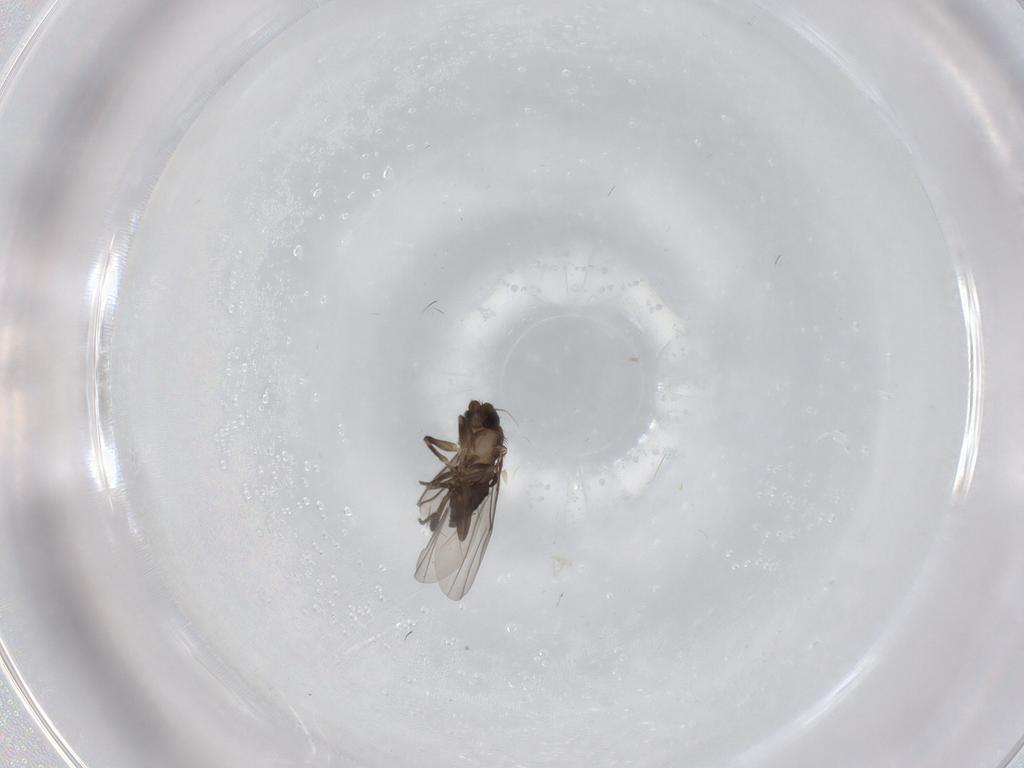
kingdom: Animalia
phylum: Arthropoda
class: Insecta
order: Diptera
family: Phoridae
